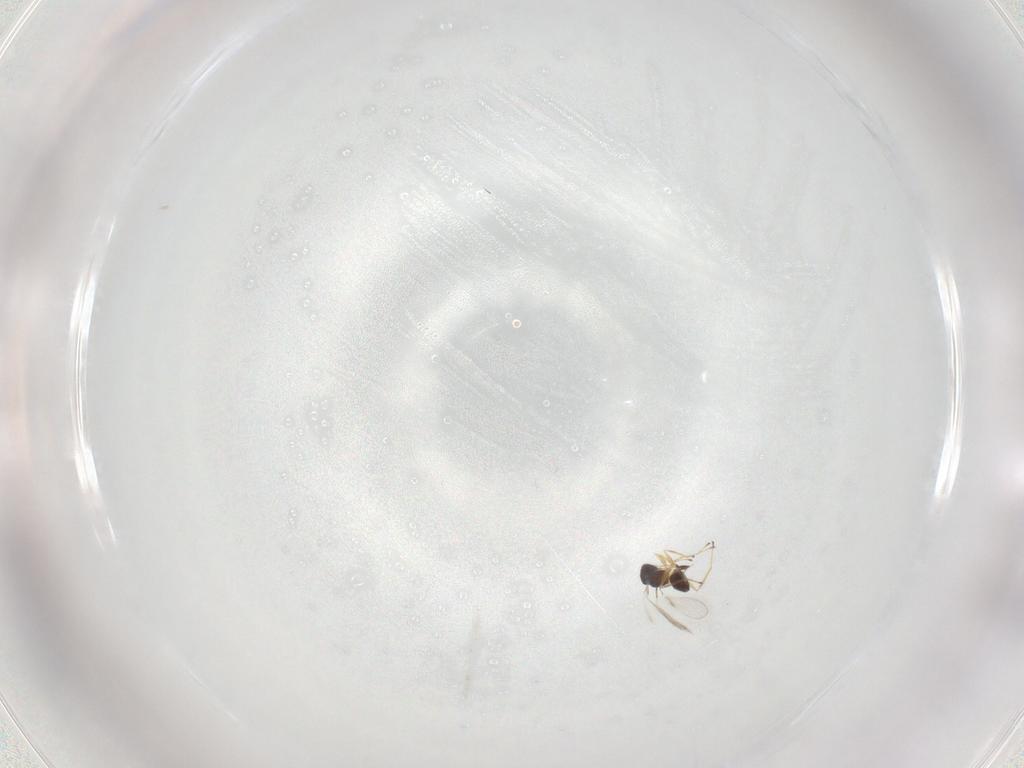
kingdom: Animalia
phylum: Arthropoda
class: Insecta
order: Hymenoptera
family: Mymaridae
